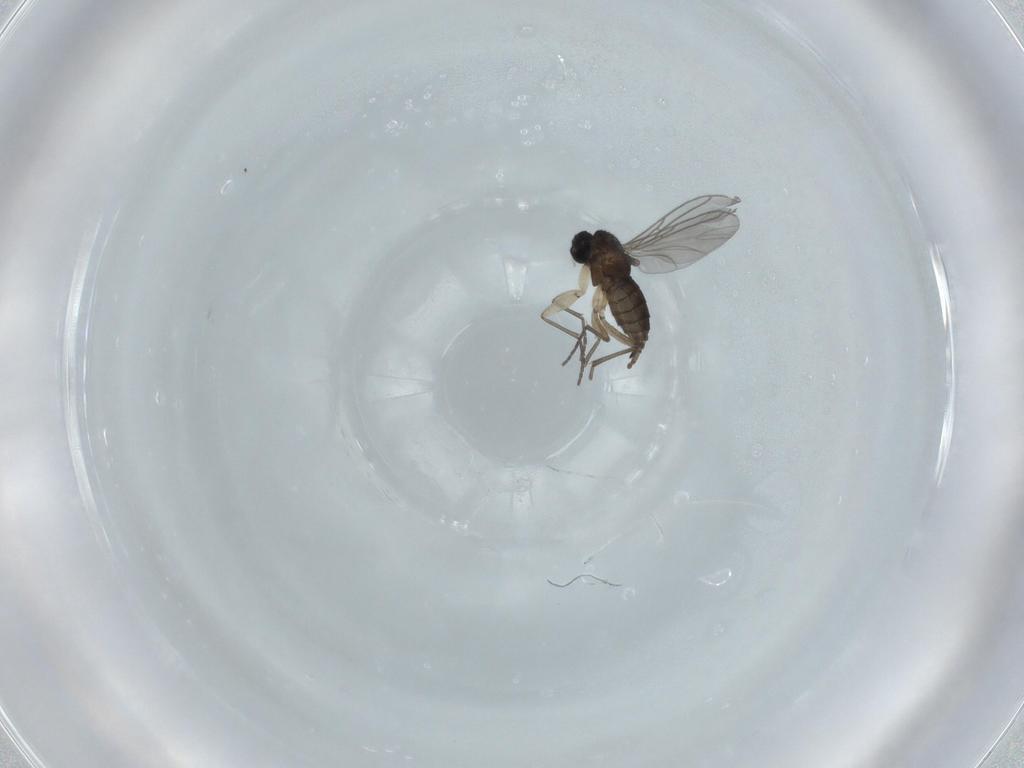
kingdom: Animalia
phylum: Arthropoda
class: Insecta
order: Diptera
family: Sciaridae
